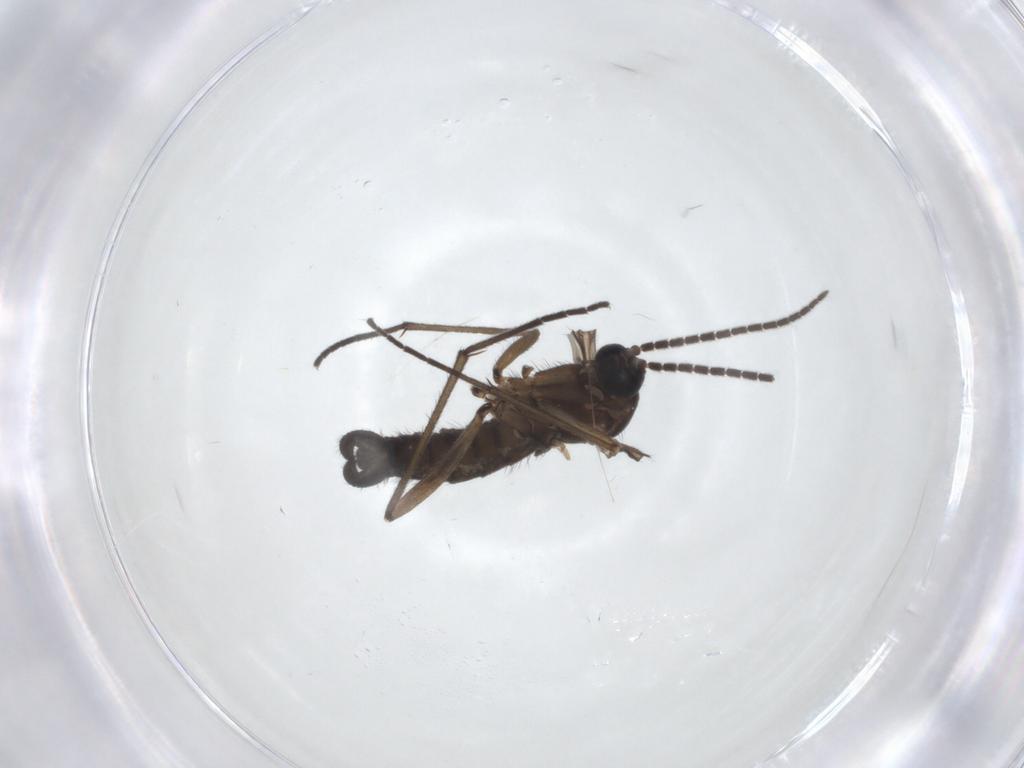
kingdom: Animalia
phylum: Arthropoda
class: Insecta
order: Diptera
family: Sciaridae
